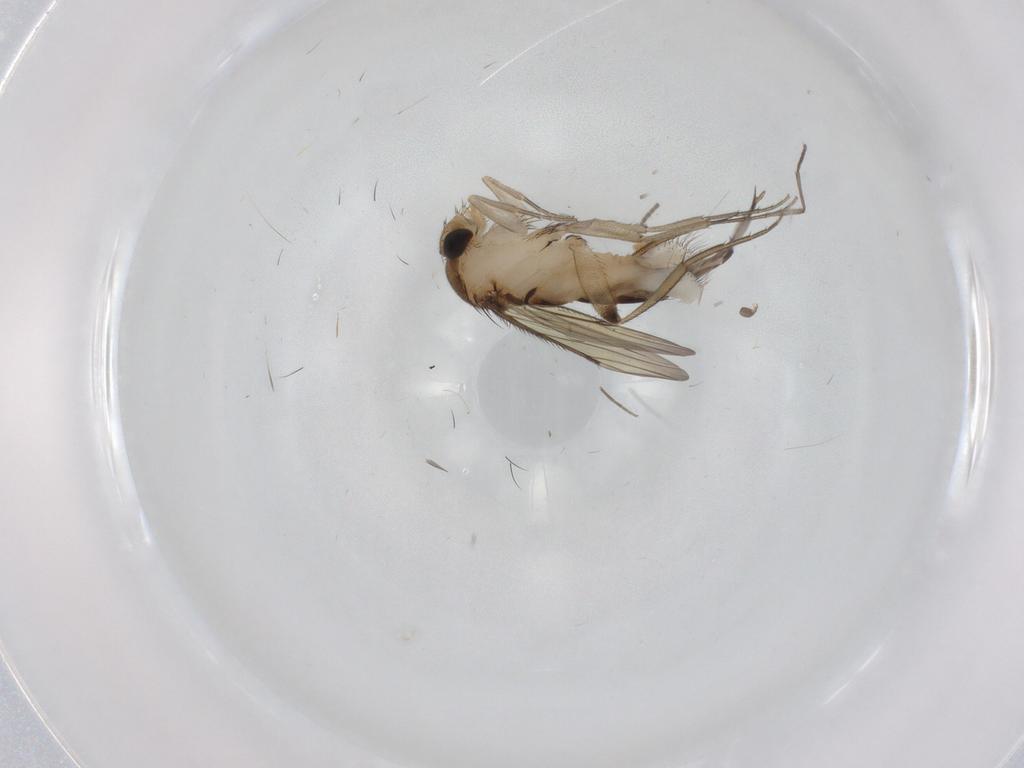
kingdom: Animalia
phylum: Arthropoda
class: Insecta
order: Diptera
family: Phoridae
